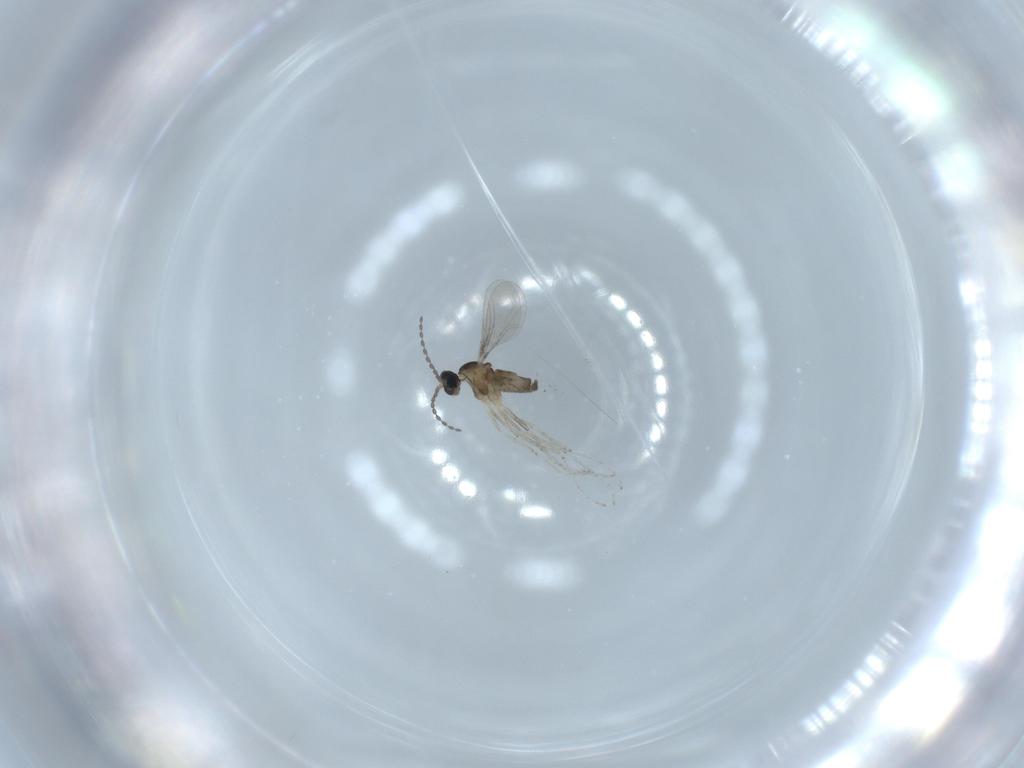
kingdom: Animalia
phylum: Arthropoda
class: Insecta
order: Diptera
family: Cecidomyiidae
